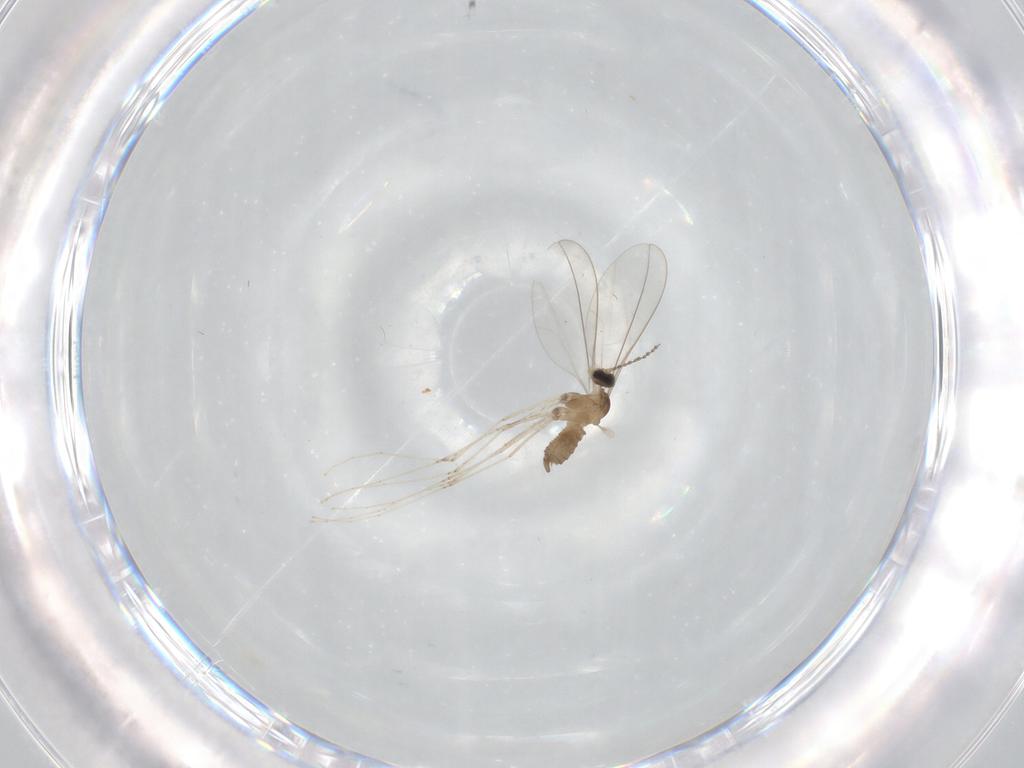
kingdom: Animalia
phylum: Arthropoda
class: Insecta
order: Diptera
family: Cecidomyiidae
